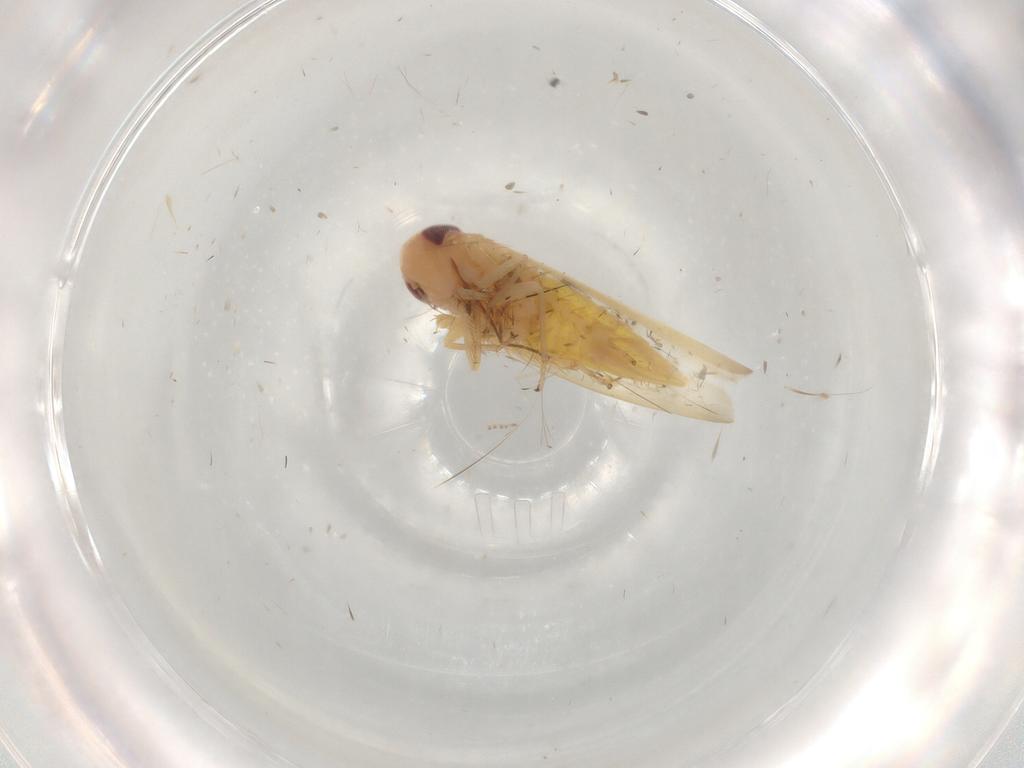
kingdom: Animalia
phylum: Arthropoda
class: Insecta
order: Hemiptera
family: Cicadellidae
